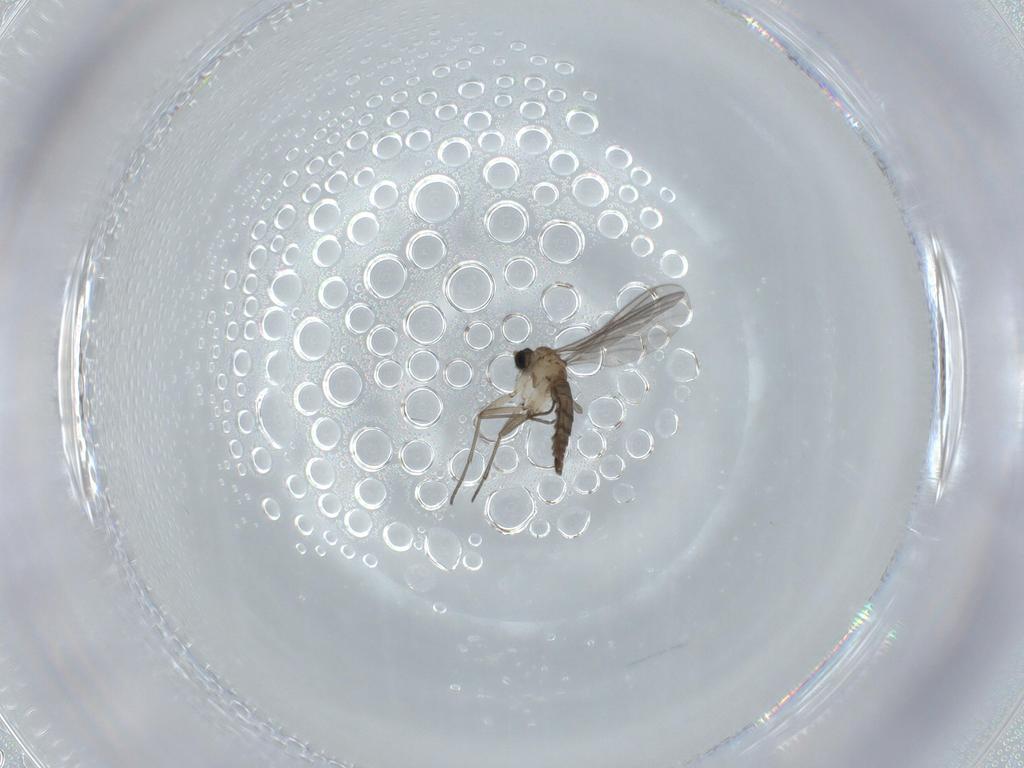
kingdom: Animalia
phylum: Arthropoda
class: Insecta
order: Diptera
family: Sciaridae
